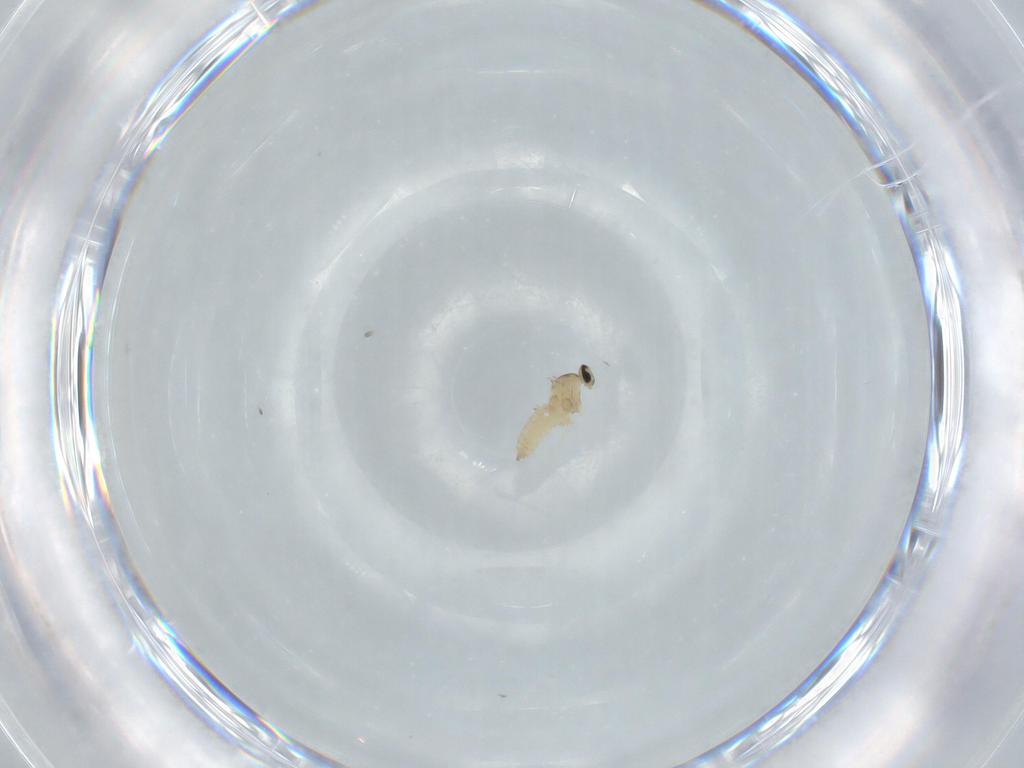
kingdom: Animalia
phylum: Arthropoda
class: Insecta
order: Diptera
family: Cecidomyiidae
